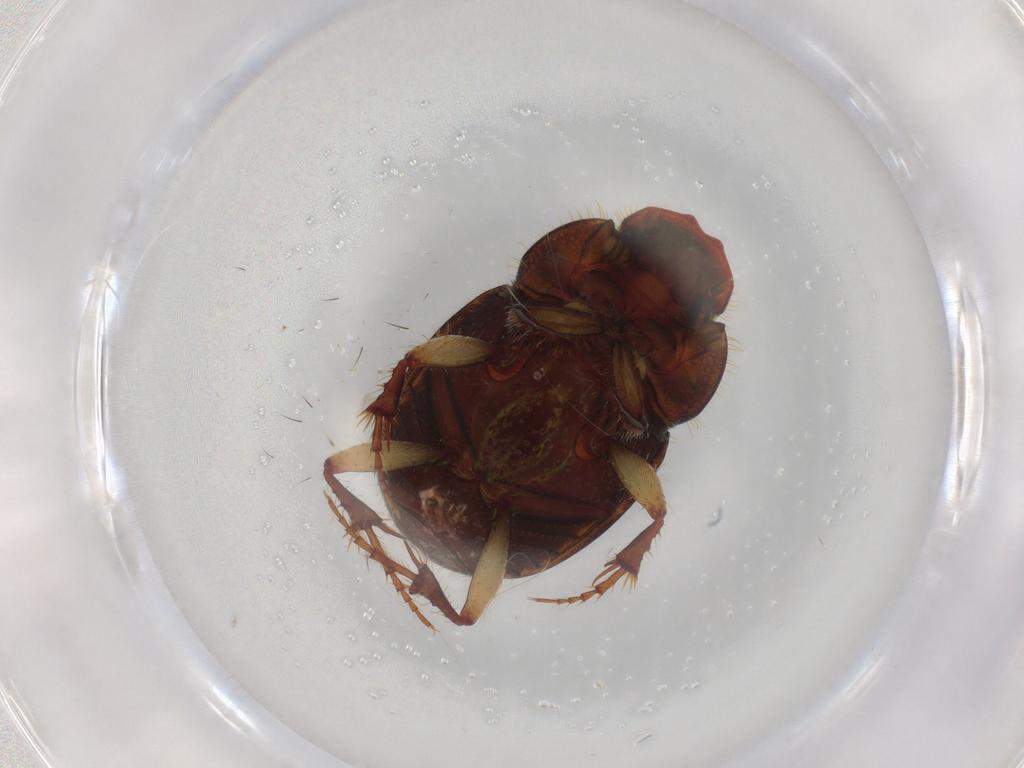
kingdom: Animalia
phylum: Arthropoda
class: Insecta
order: Coleoptera
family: Scarabaeidae
